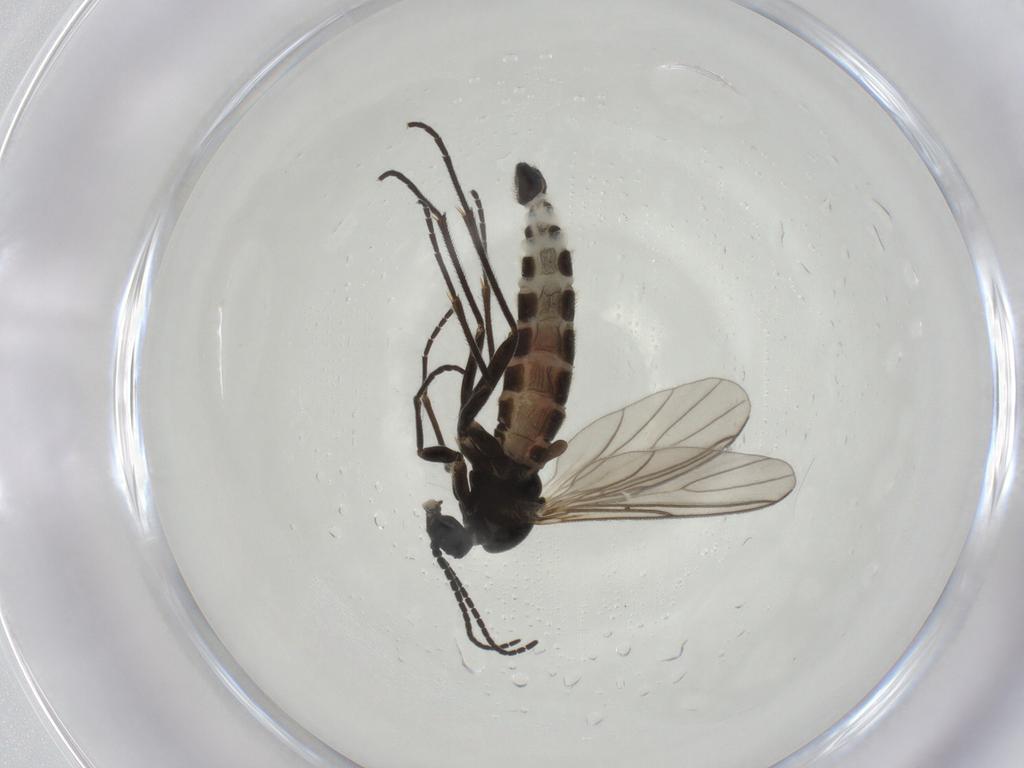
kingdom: Animalia
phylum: Arthropoda
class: Insecta
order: Diptera
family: Sciaridae
